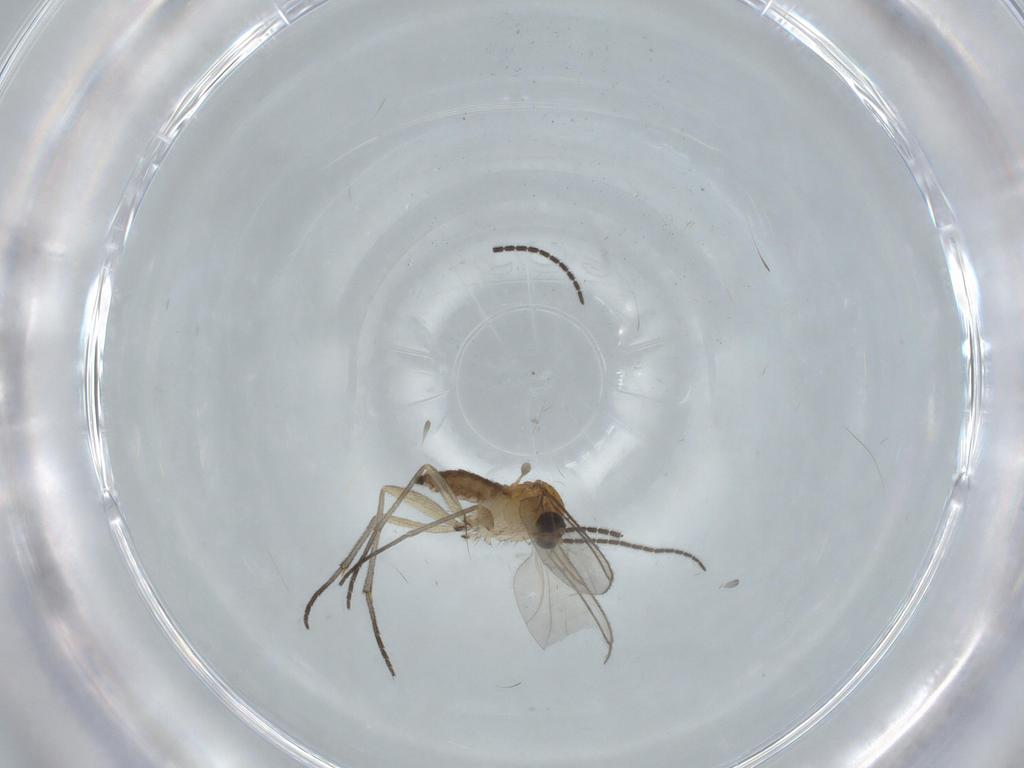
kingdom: Animalia
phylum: Arthropoda
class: Insecta
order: Diptera
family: Sciaridae
